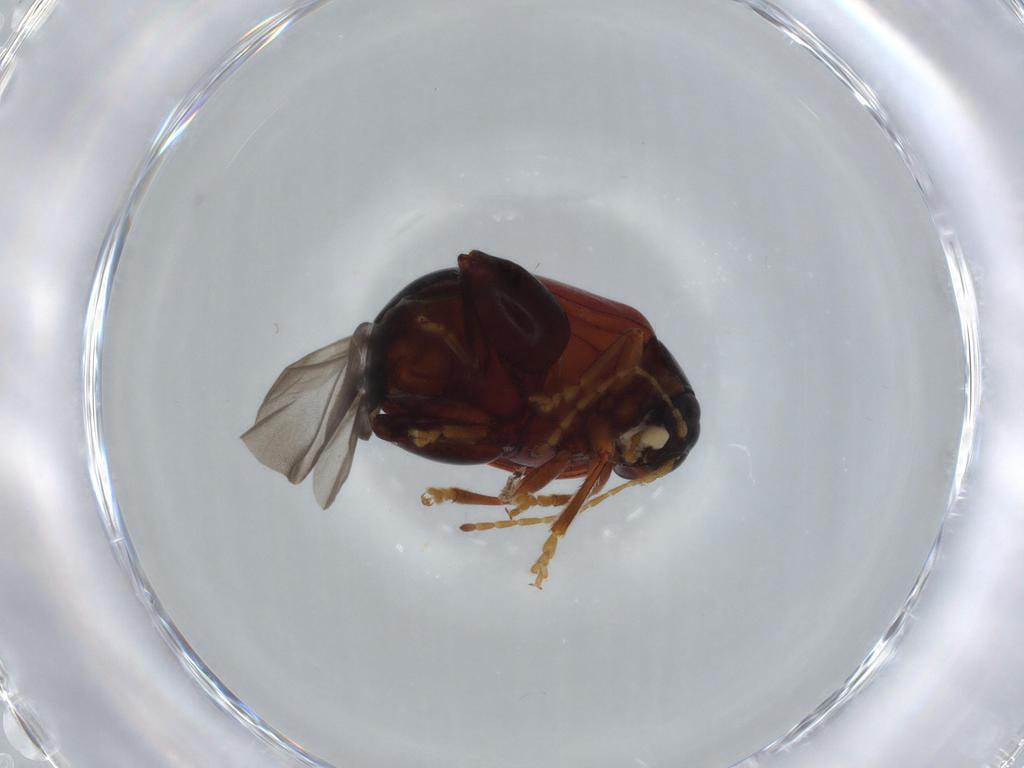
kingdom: Animalia
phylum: Arthropoda
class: Insecta
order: Coleoptera
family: Chrysomelidae
